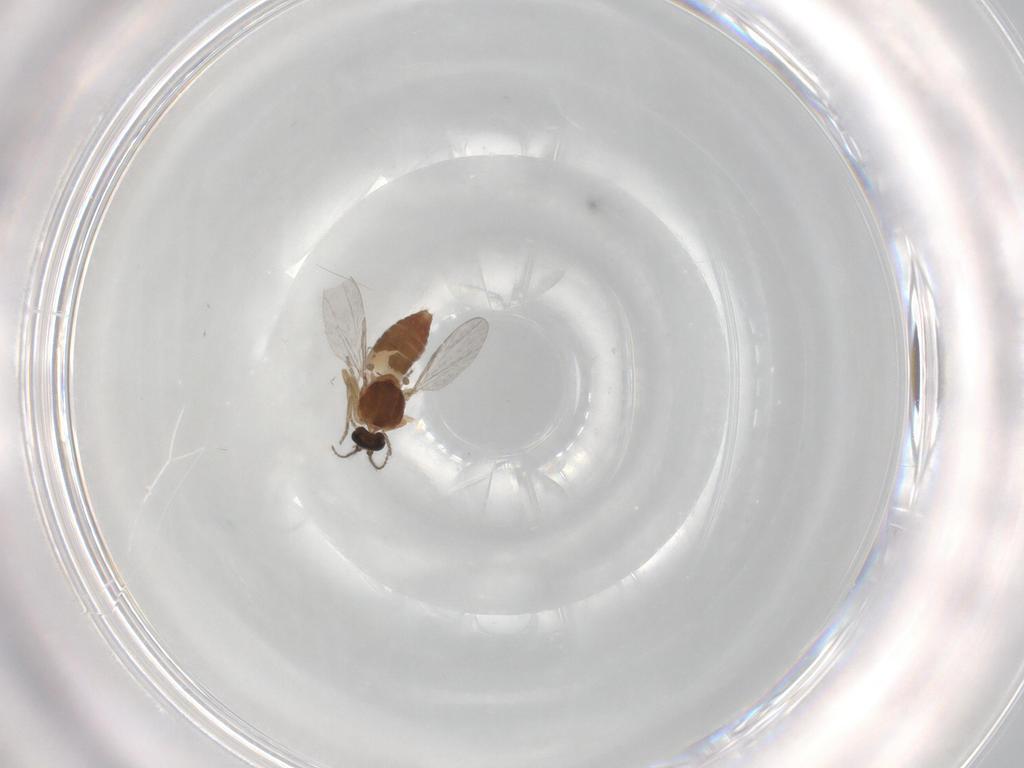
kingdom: Animalia
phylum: Arthropoda
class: Insecta
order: Diptera
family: Ceratopogonidae
